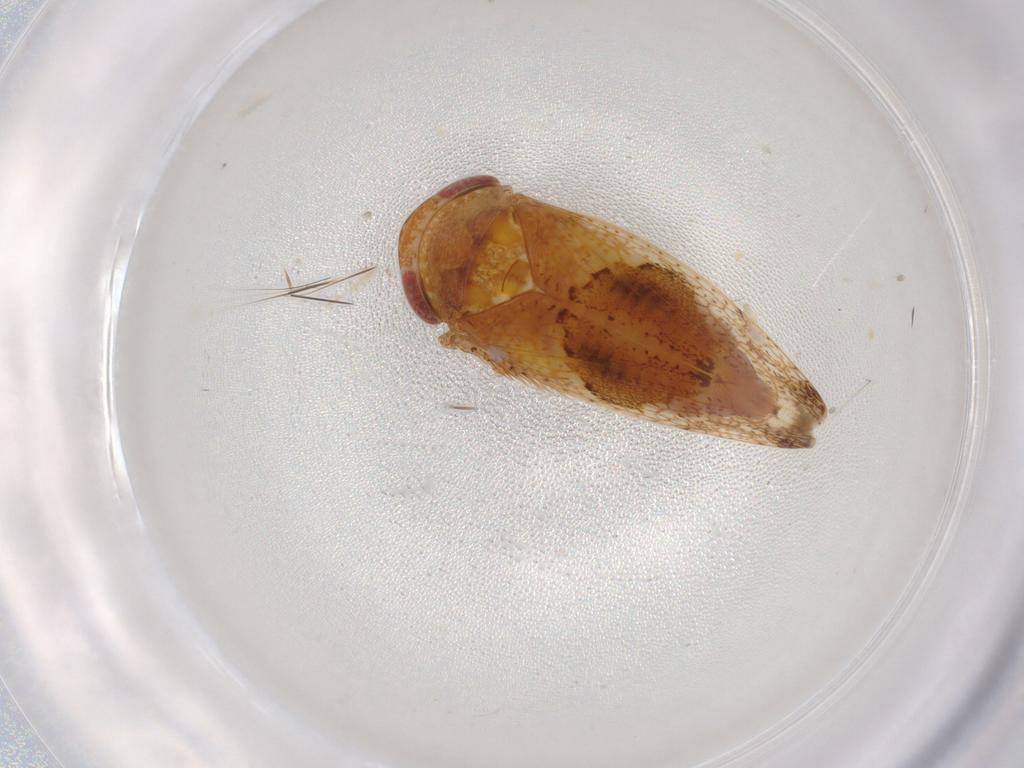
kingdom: Animalia
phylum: Arthropoda
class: Insecta
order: Hemiptera
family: Cicadellidae
